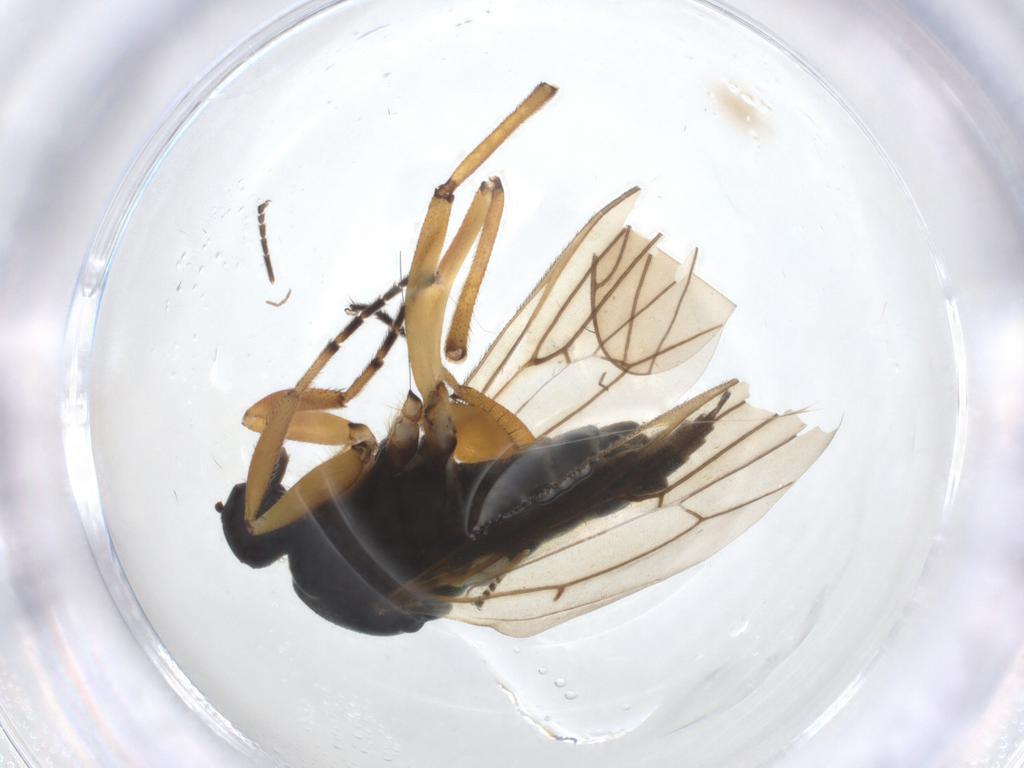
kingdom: Animalia
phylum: Arthropoda
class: Insecta
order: Diptera
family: Hybotidae
